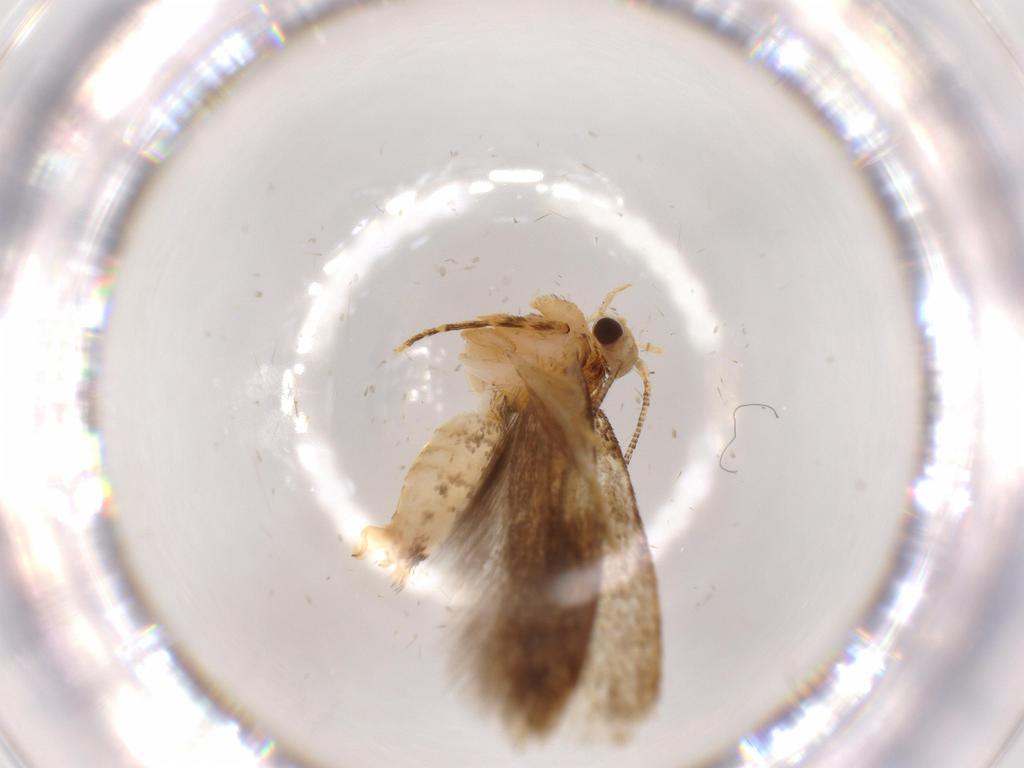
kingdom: Animalia
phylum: Arthropoda
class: Insecta
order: Lepidoptera
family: Tineidae
